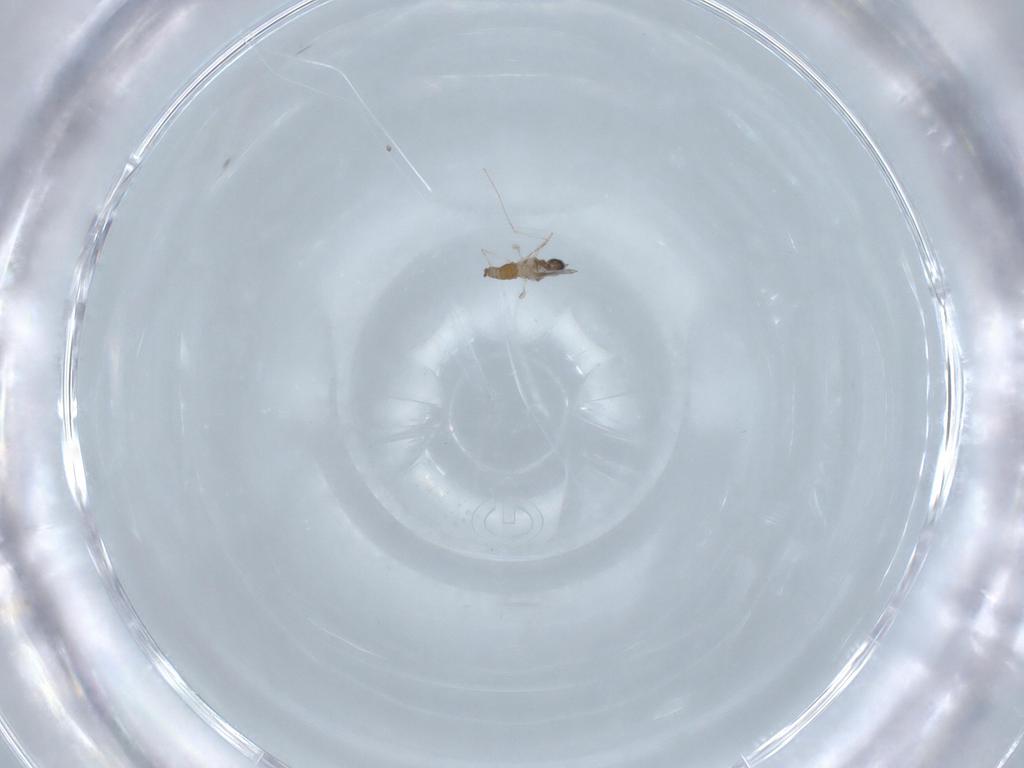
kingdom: Animalia
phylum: Arthropoda
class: Insecta
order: Diptera
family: Cecidomyiidae
